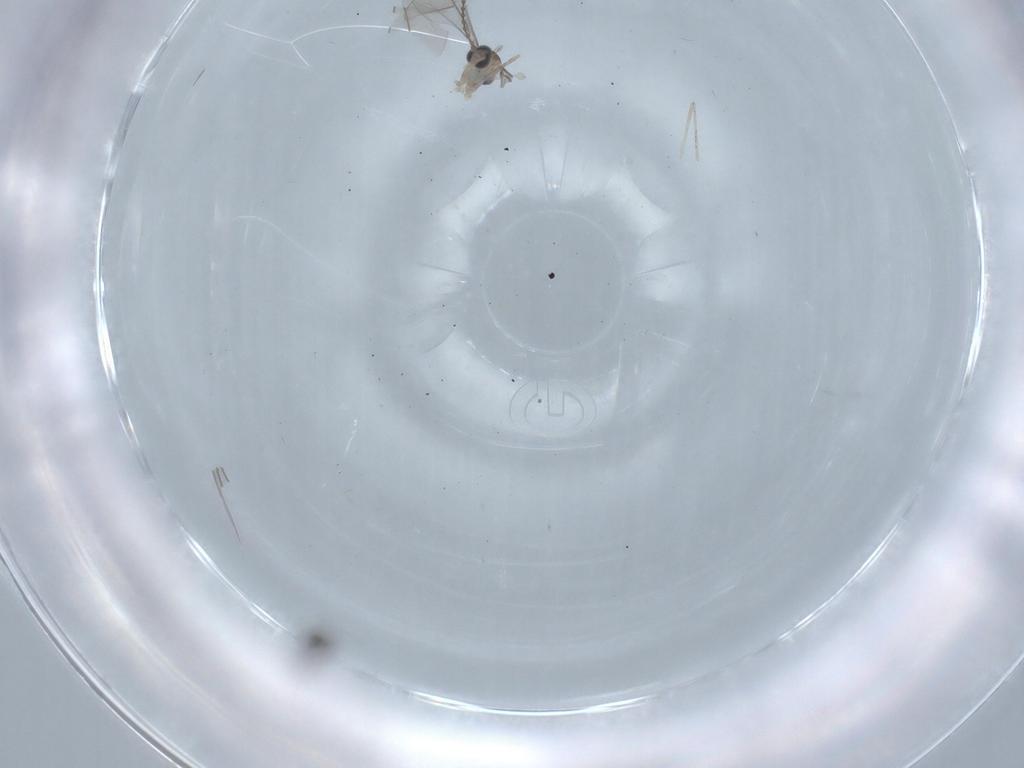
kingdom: Animalia
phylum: Arthropoda
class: Insecta
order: Diptera
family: Cecidomyiidae
